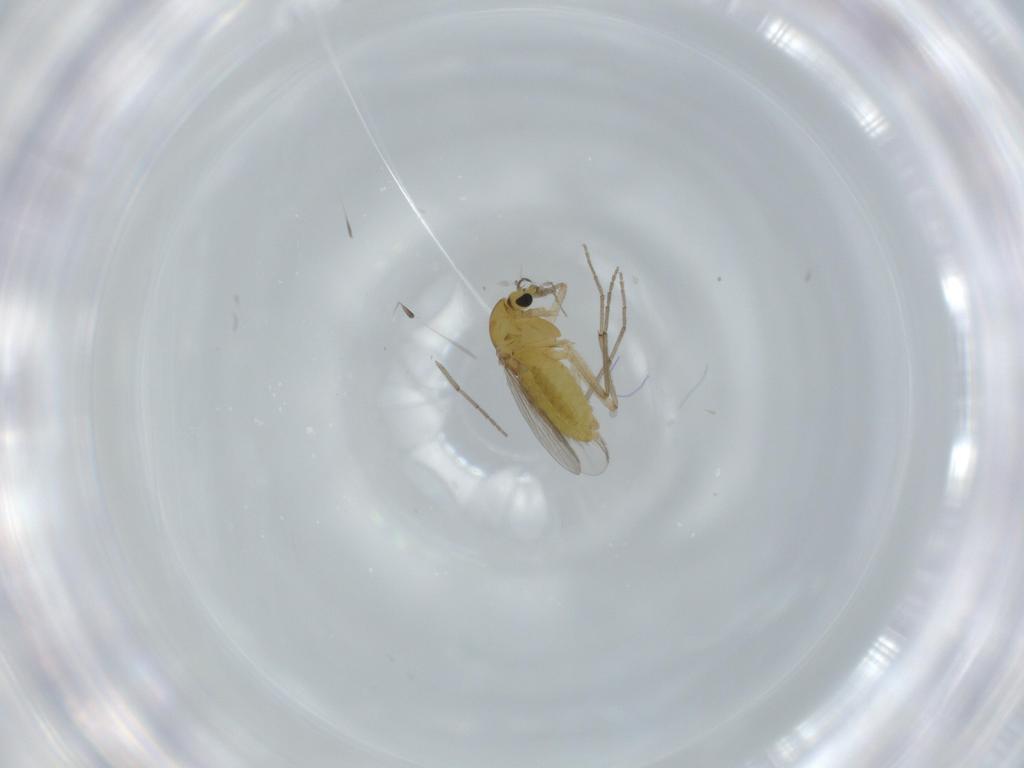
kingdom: Animalia
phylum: Arthropoda
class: Insecta
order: Diptera
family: Chironomidae
